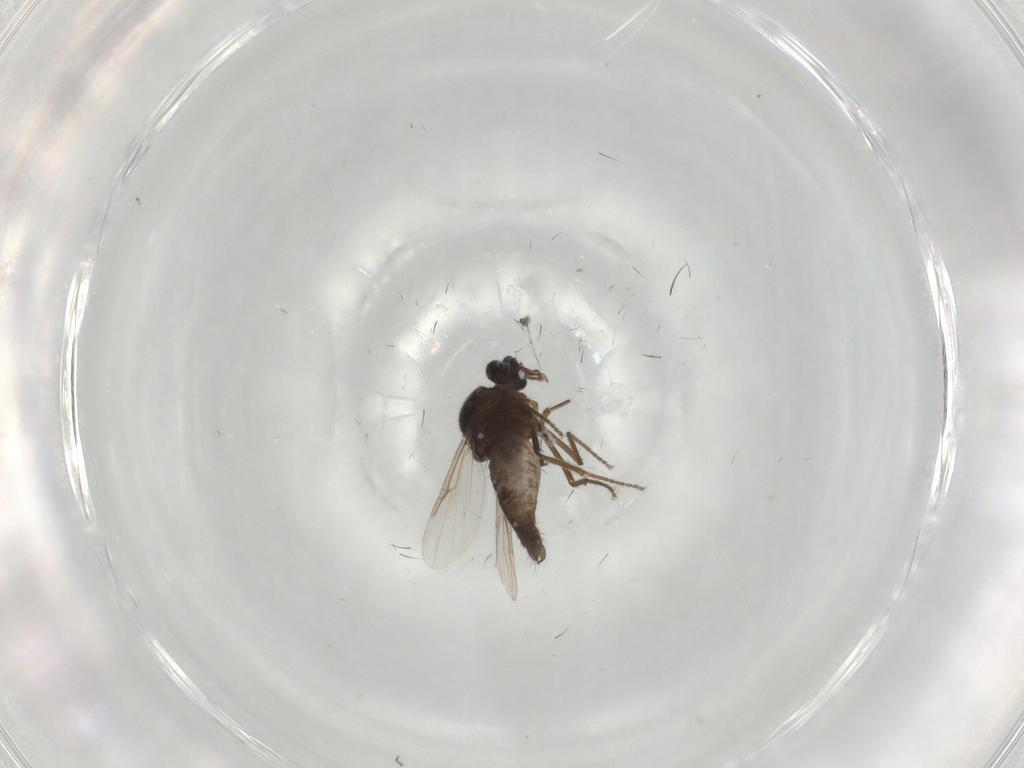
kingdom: Animalia
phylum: Arthropoda
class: Insecta
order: Diptera
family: Ceratopogonidae
